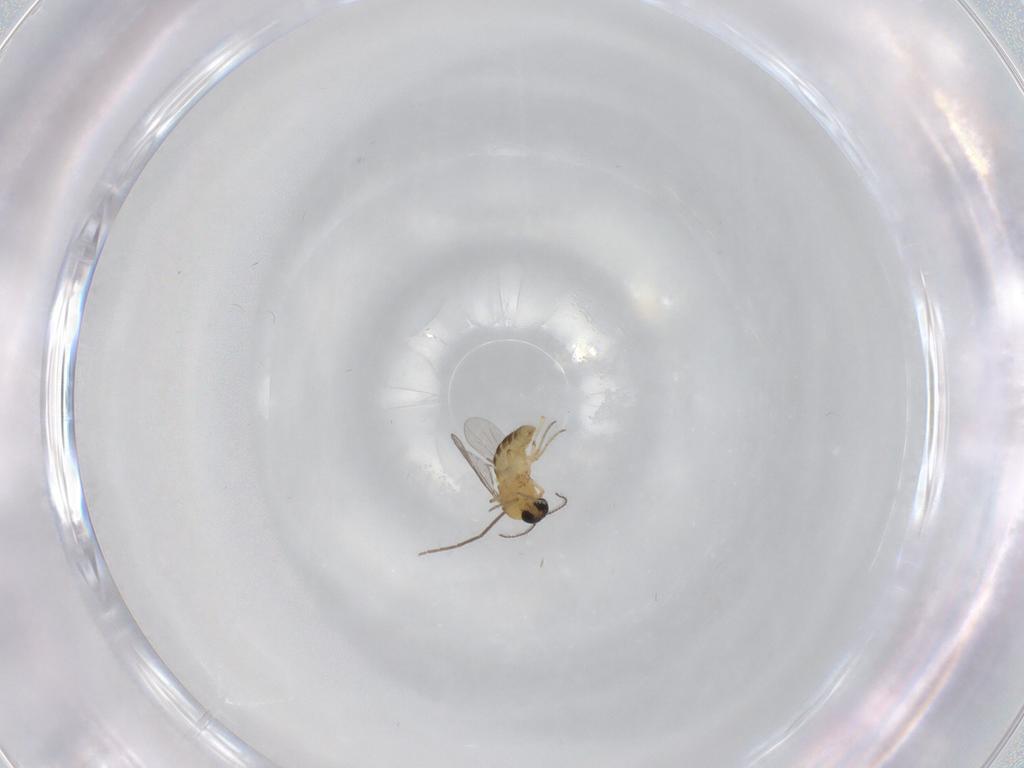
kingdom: Animalia
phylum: Arthropoda
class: Insecta
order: Diptera
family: Ceratopogonidae
